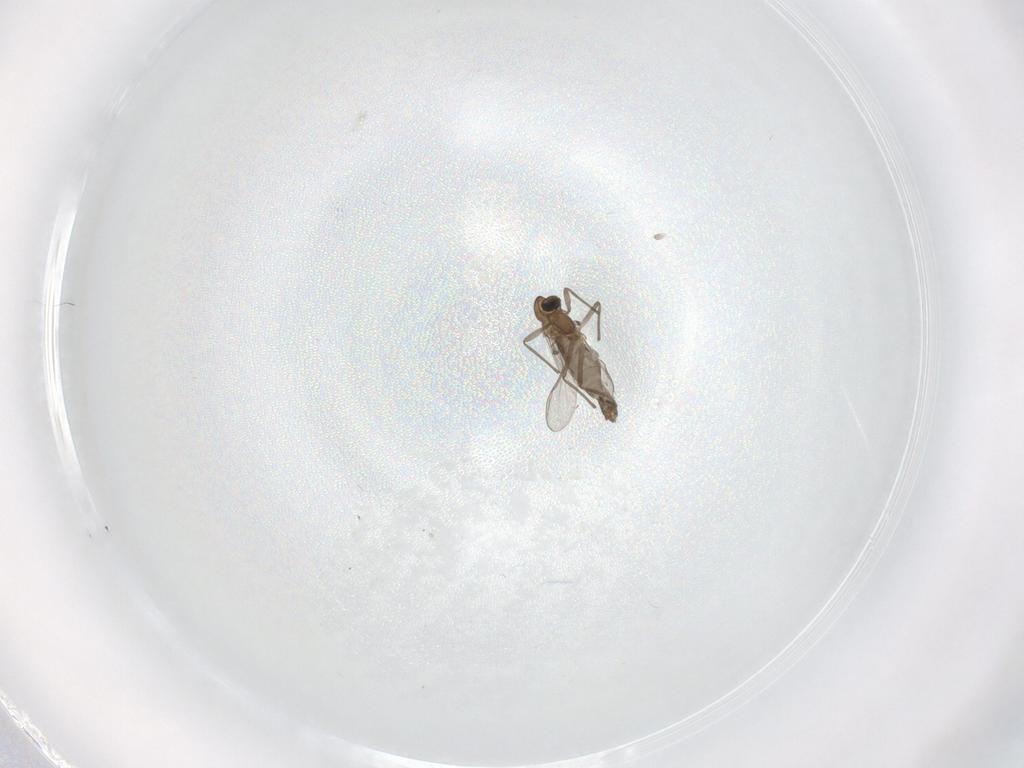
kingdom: Animalia
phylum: Arthropoda
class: Insecta
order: Diptera
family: Chironomidae
